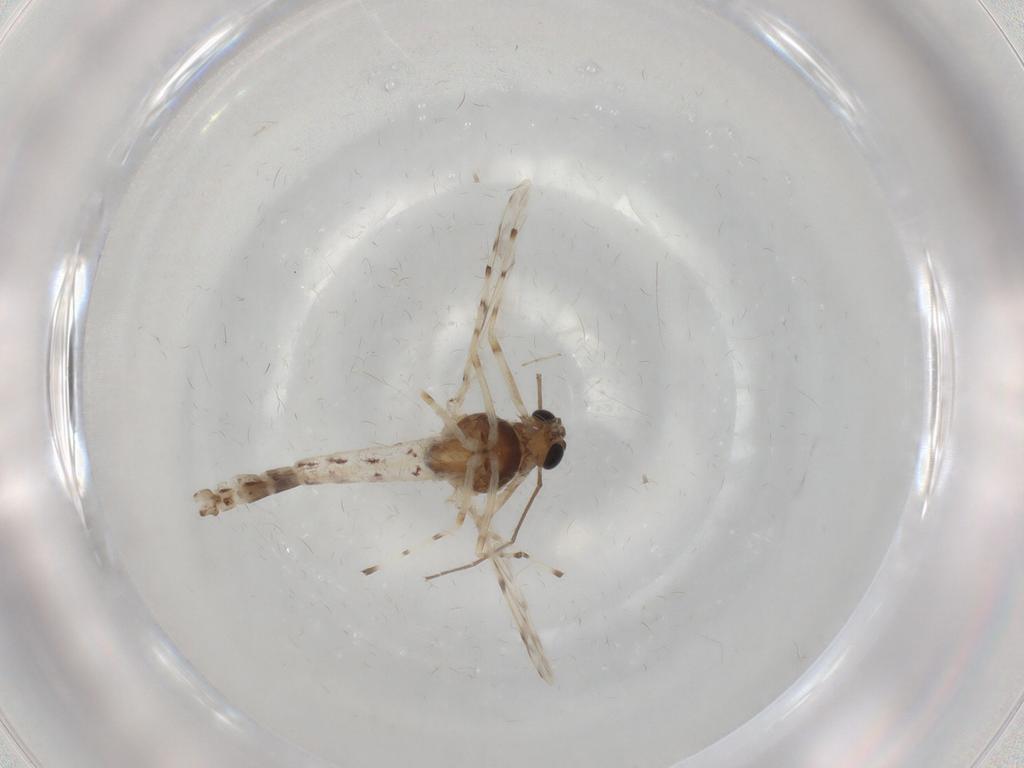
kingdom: Animalia
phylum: Arthropoda
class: Insecta
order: Diptera
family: Chironomidae
